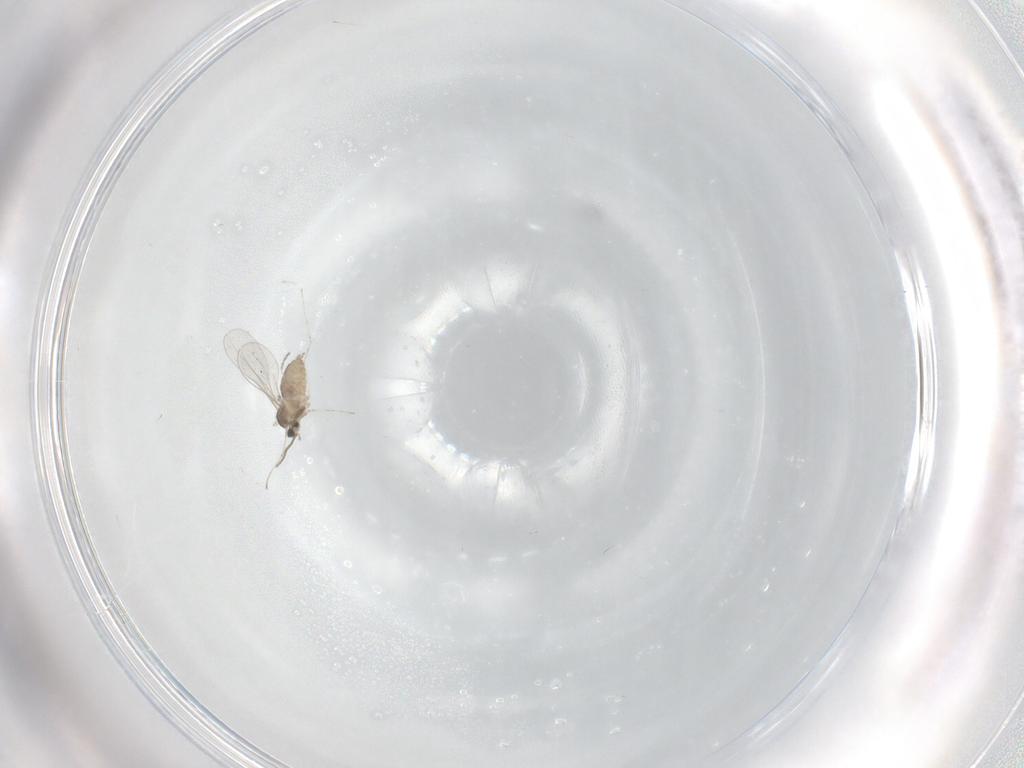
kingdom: Animalia
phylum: Arthropoda
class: Insecta
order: Diptera
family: Cecidomyiidae
